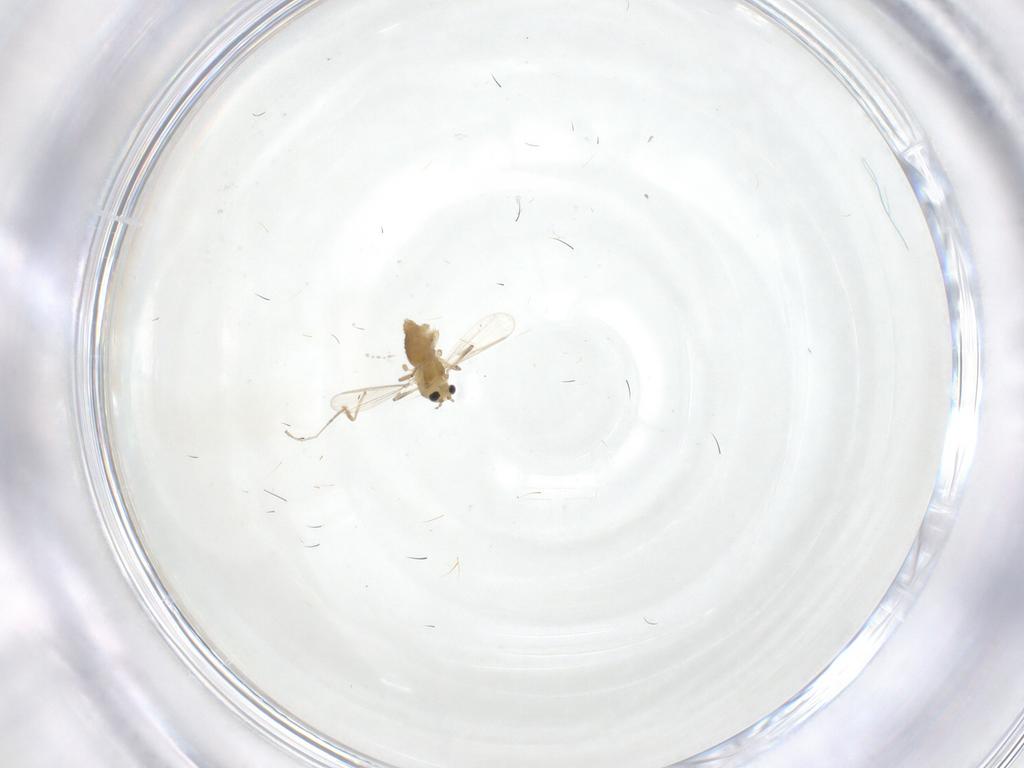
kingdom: Animalia
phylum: Arthropoda
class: Insecta
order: Diptera
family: Chironomidae
